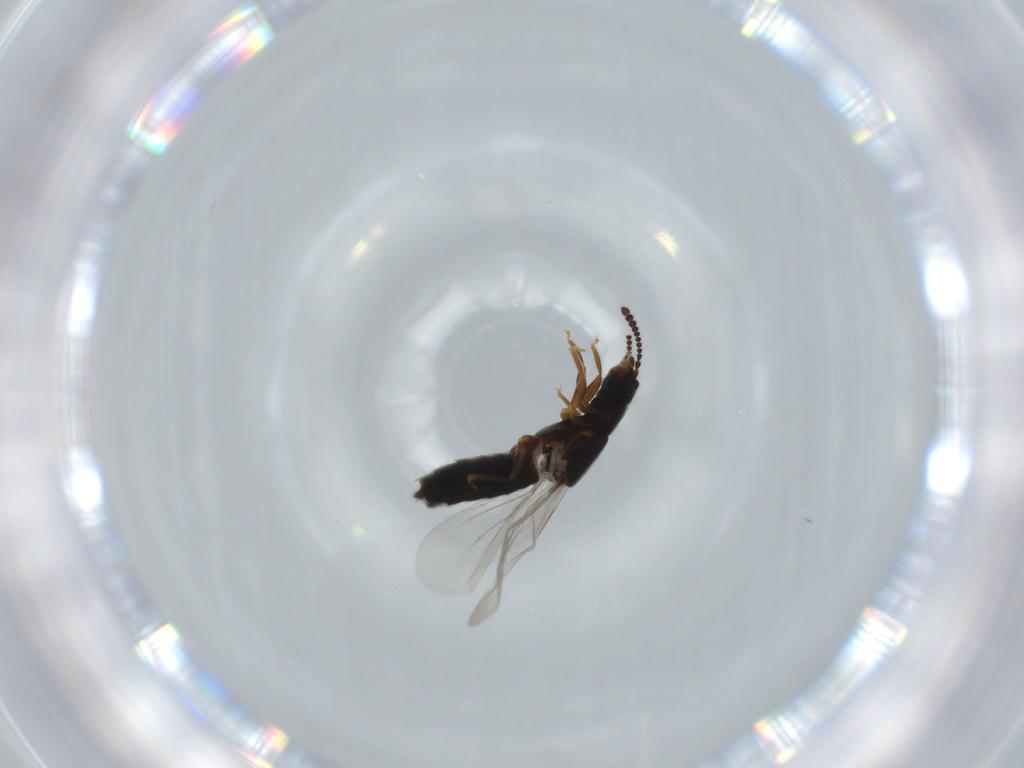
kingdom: Animalia
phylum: Arthropoda
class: Insecta
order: Coleoptera
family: Staphylinidae
